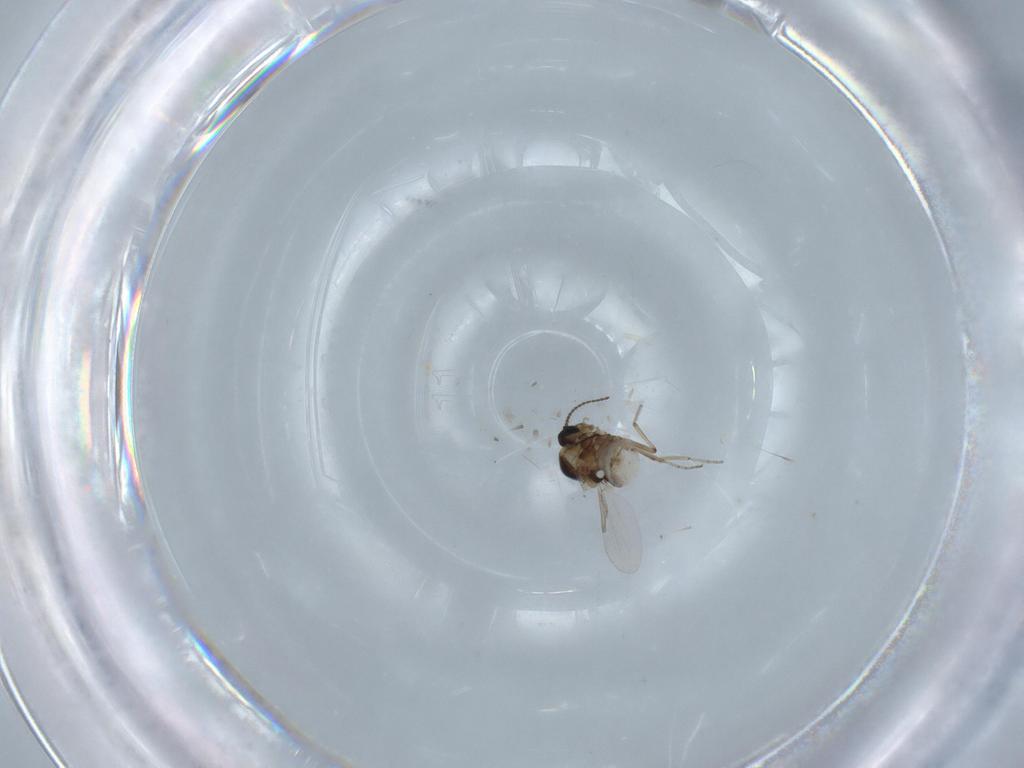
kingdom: Animalia
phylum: Arthropoda
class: Insecta
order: Diptera
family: Ceratopogonidae
